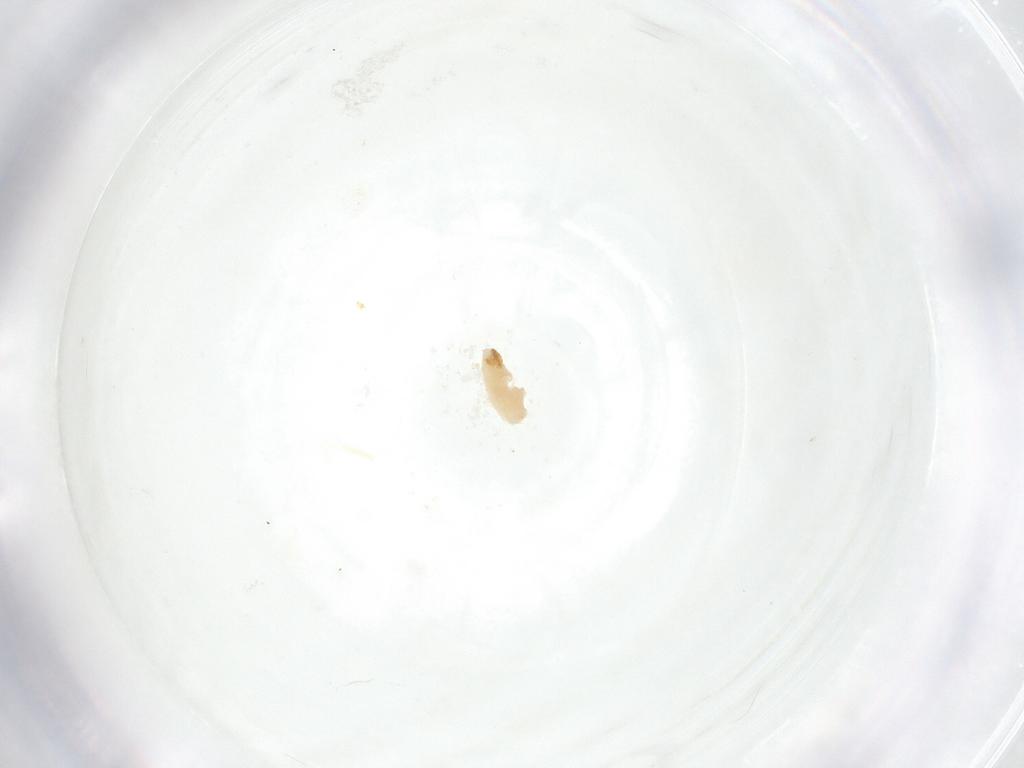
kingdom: Animalia
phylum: Arthropoda
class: Insecta
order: Diptera
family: Fergusoninidae
